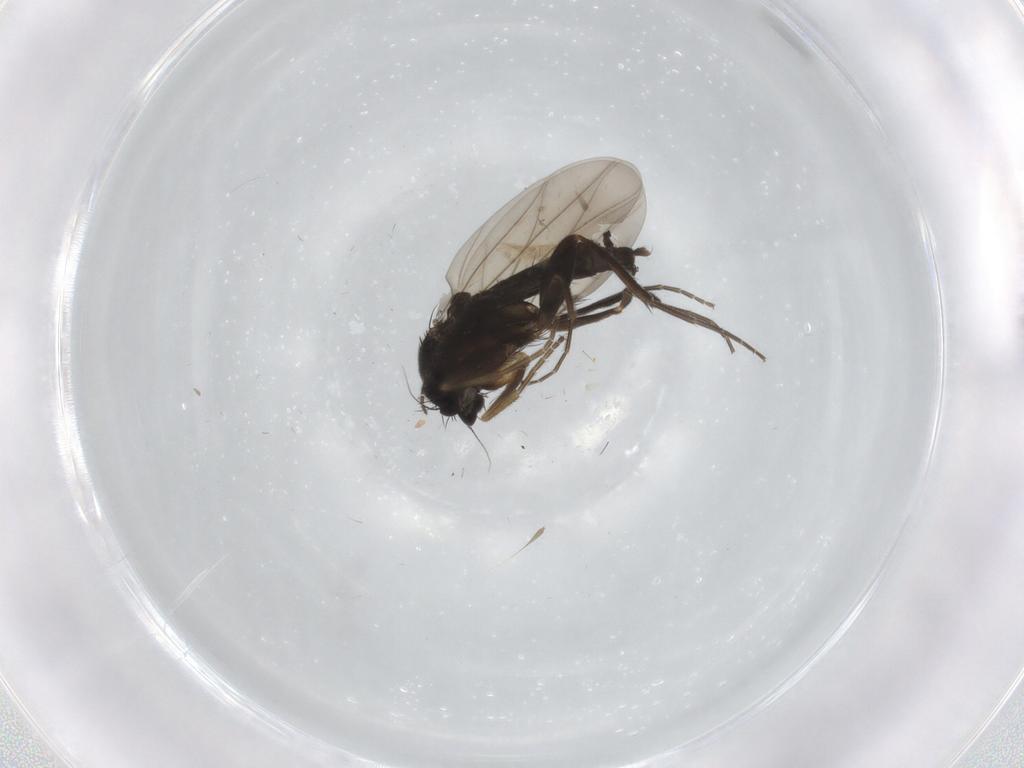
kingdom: Animalia
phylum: Arthropoda
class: Insecta
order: Diptera
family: Phoridae
